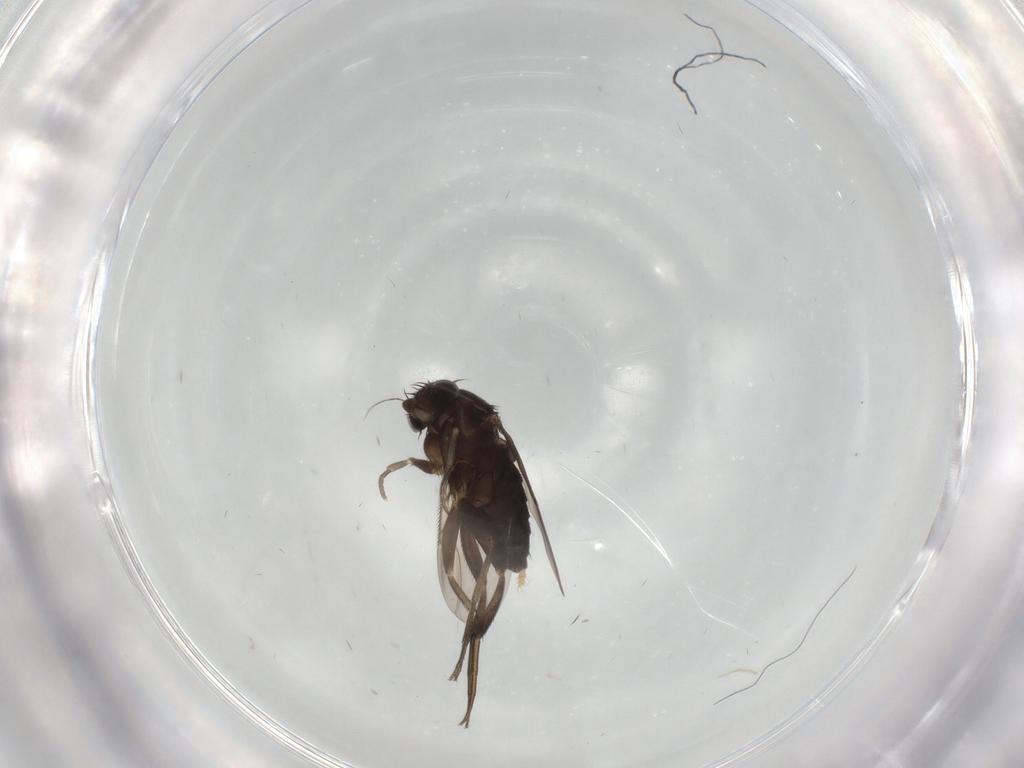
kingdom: Animalia
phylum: Arthropoda
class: Insecta
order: Diptera
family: Phoridae
